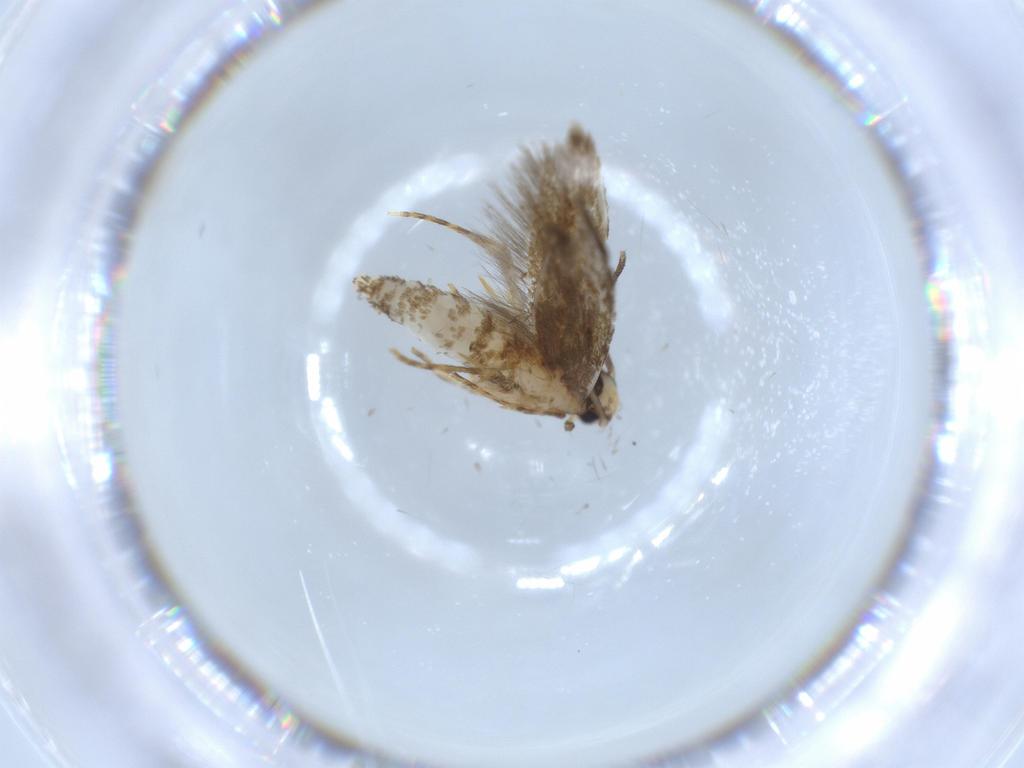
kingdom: Animalia
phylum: Arthropoda
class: Insecta
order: Lepidoptera
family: Tineidae
